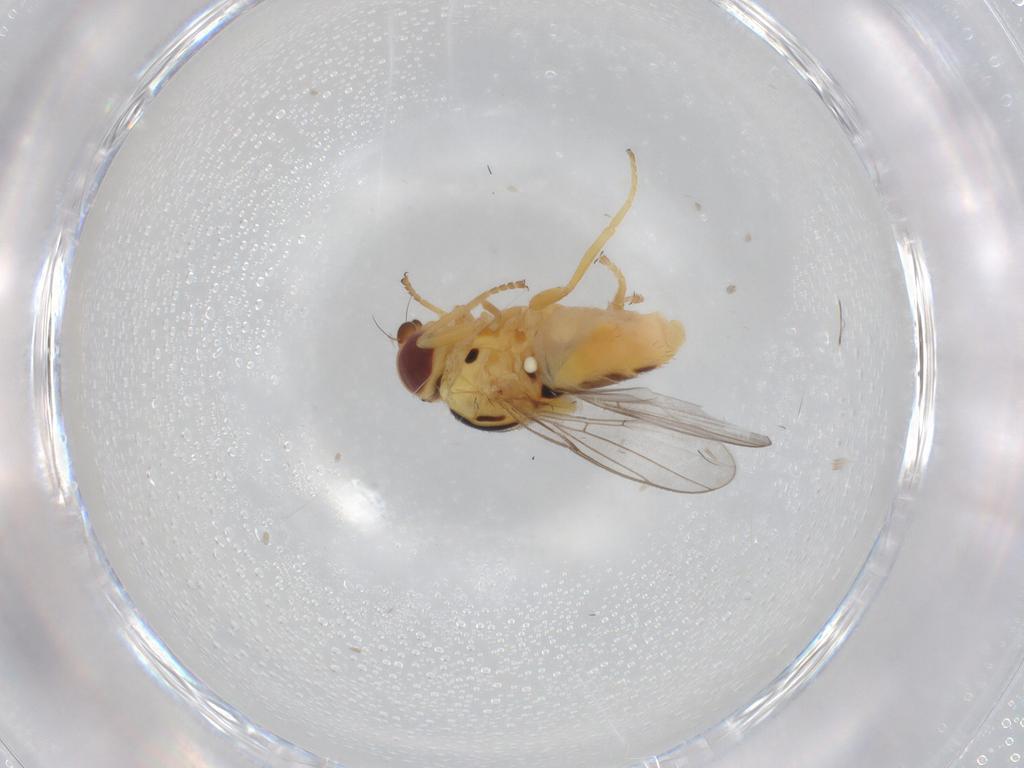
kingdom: Animalia
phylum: Arthropoda
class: Insecta
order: Diptera
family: Chloropidae
